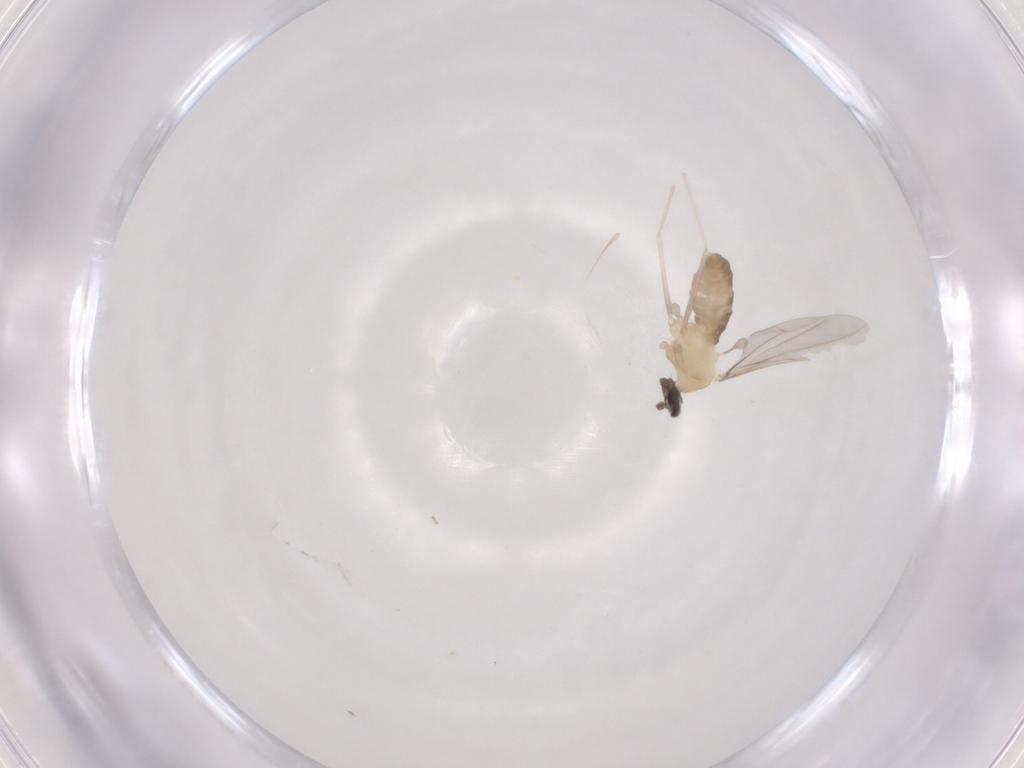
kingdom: Animalia
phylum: Arthropoda
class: Insecta
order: Diptera
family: Cecidomyiidae
